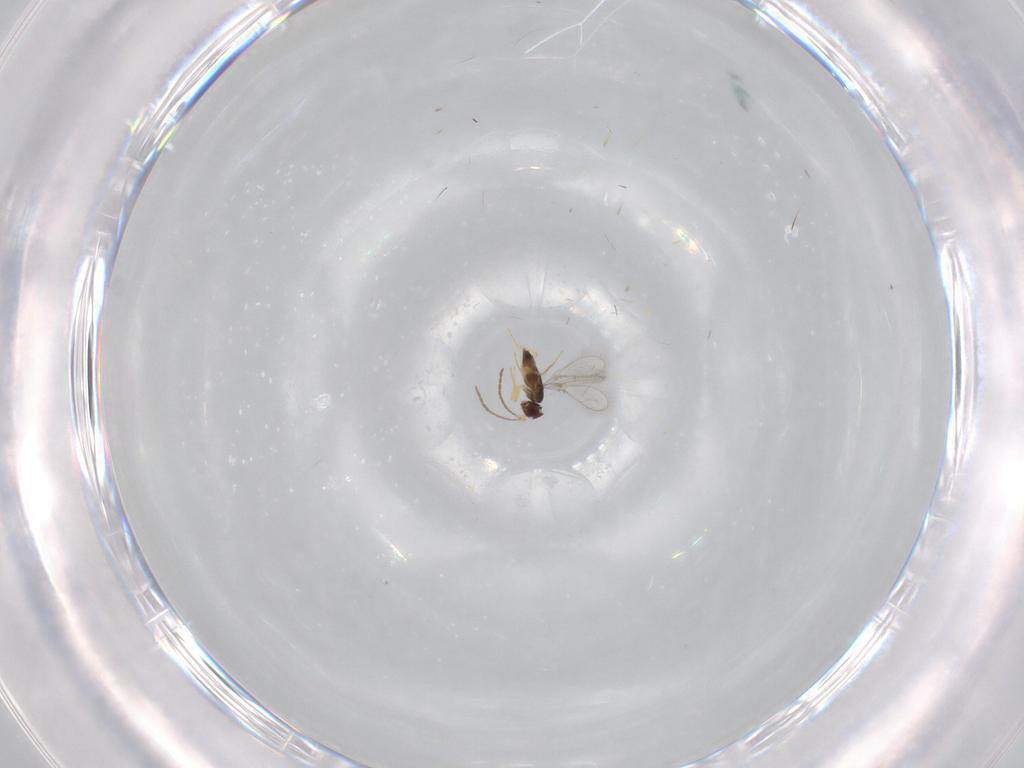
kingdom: Animalia
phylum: Arthropoda
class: Insecta
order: Hymenoptera
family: Mymaridae
